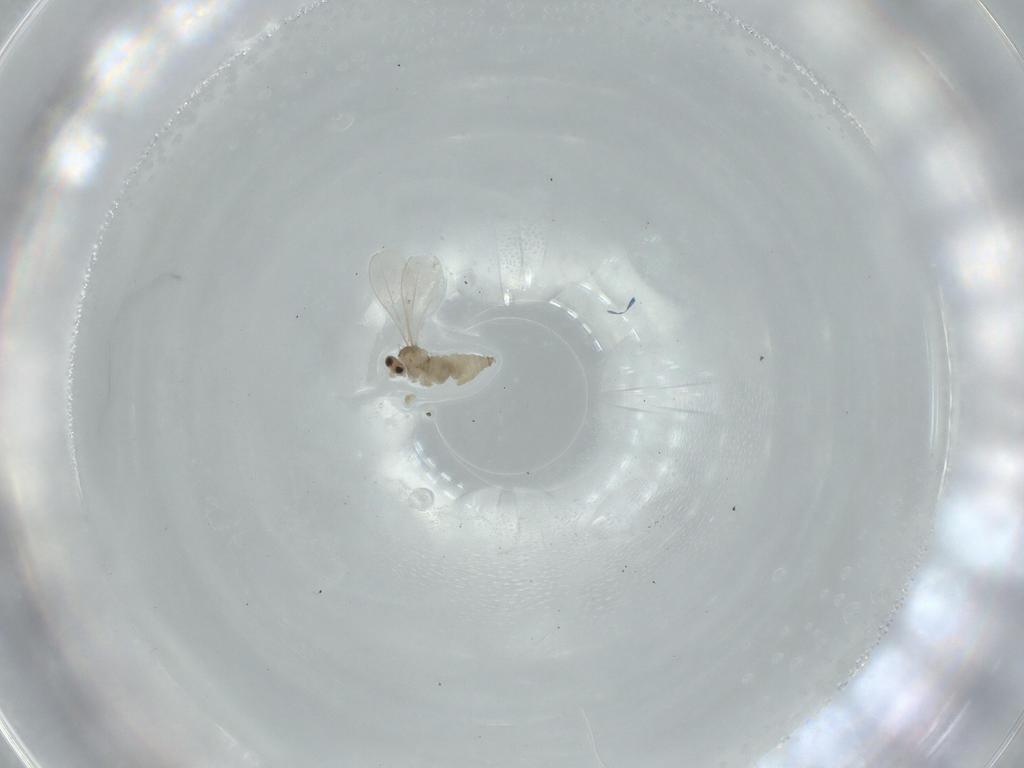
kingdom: Animalia
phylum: Arthropoda
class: Insecta
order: Diptera
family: Cecidomyiidae
